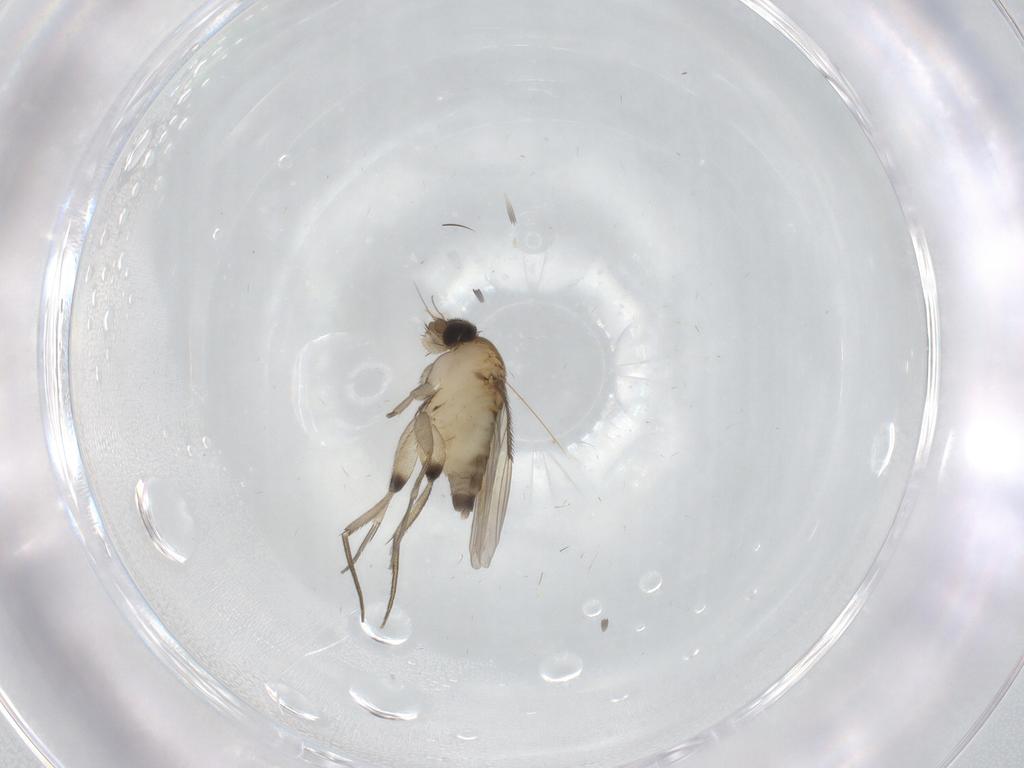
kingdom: Animalia
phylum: Arthropoda
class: Insecta
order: Diptera
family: Phoridae
